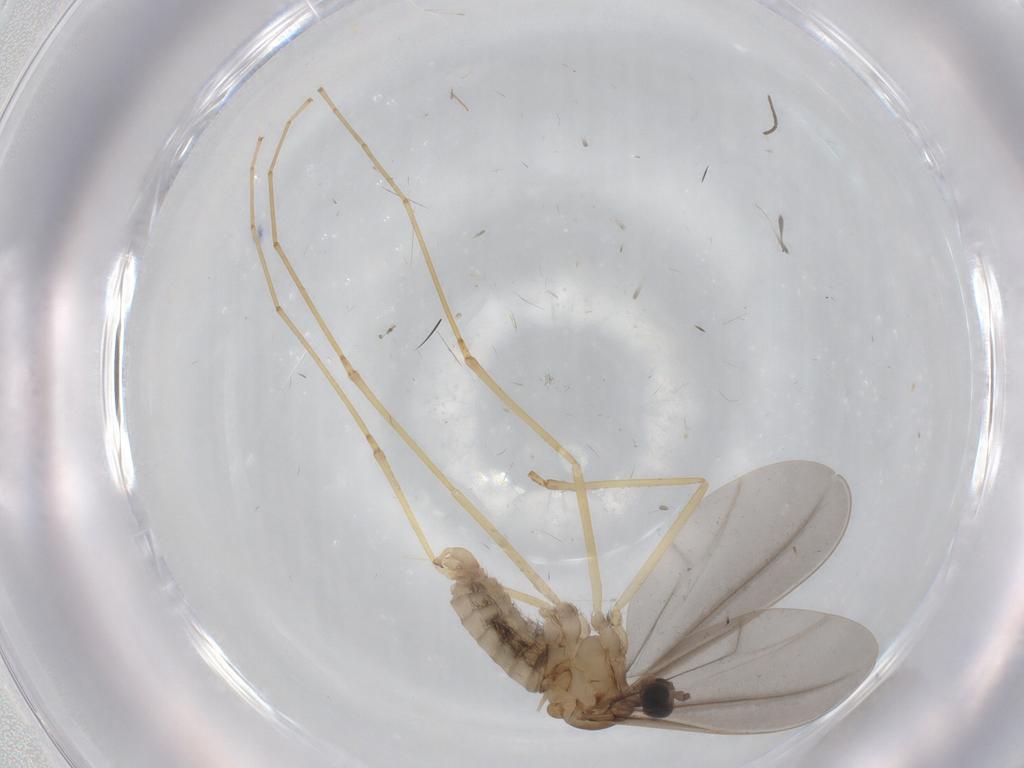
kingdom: Animalia
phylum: Arthropoda
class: Insecta
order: Diptera
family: Cecidomyiidae
